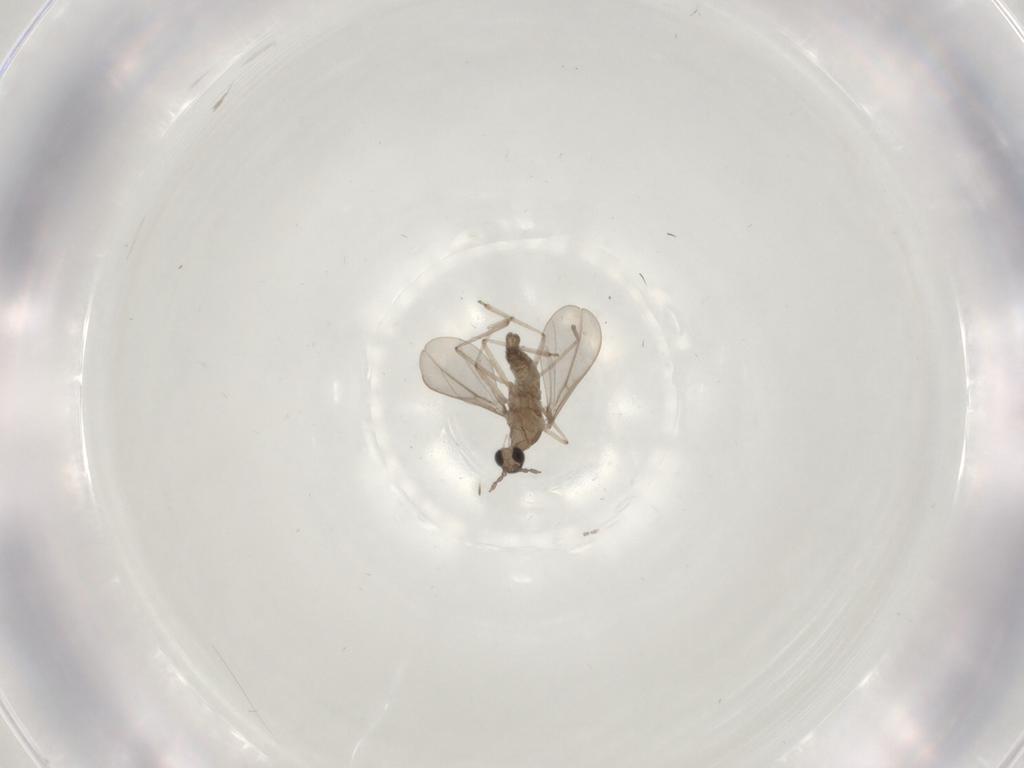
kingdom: Animalia
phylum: Arthropoda
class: Insecta
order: Diptera
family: Cecidomyiidae
